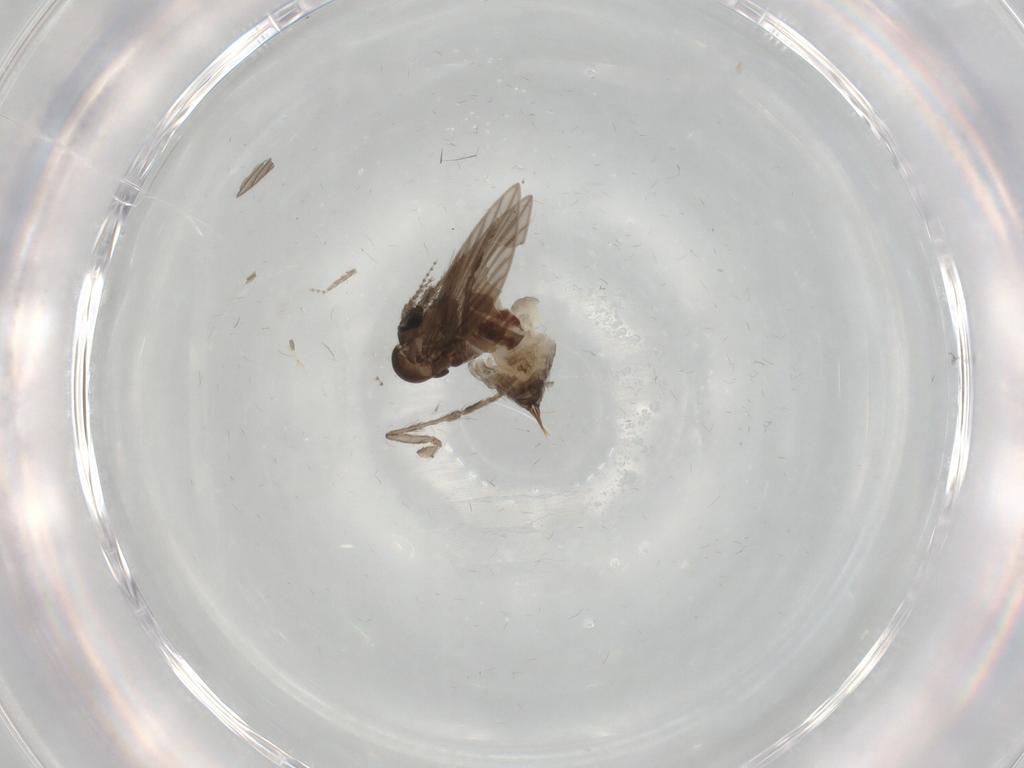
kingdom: Animalia
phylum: Arthropoda
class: Insecta
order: Diptera
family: Psychodidae
